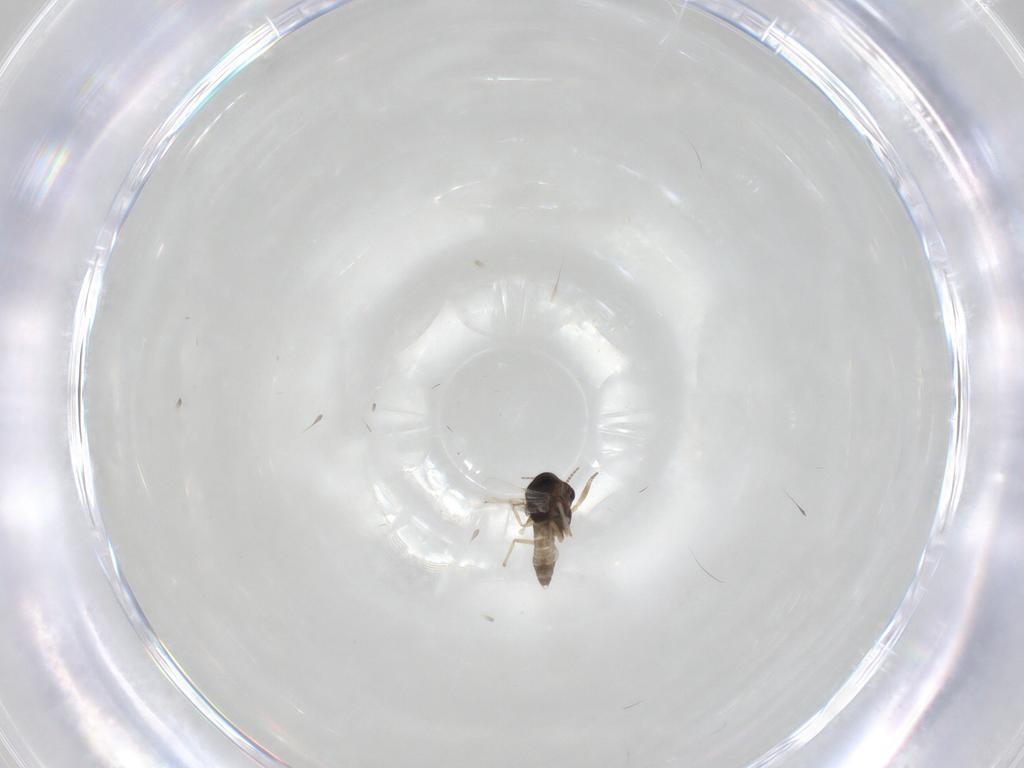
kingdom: Animalia
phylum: Arthropoda
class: Insecta
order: Diptera
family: Chironomidae
